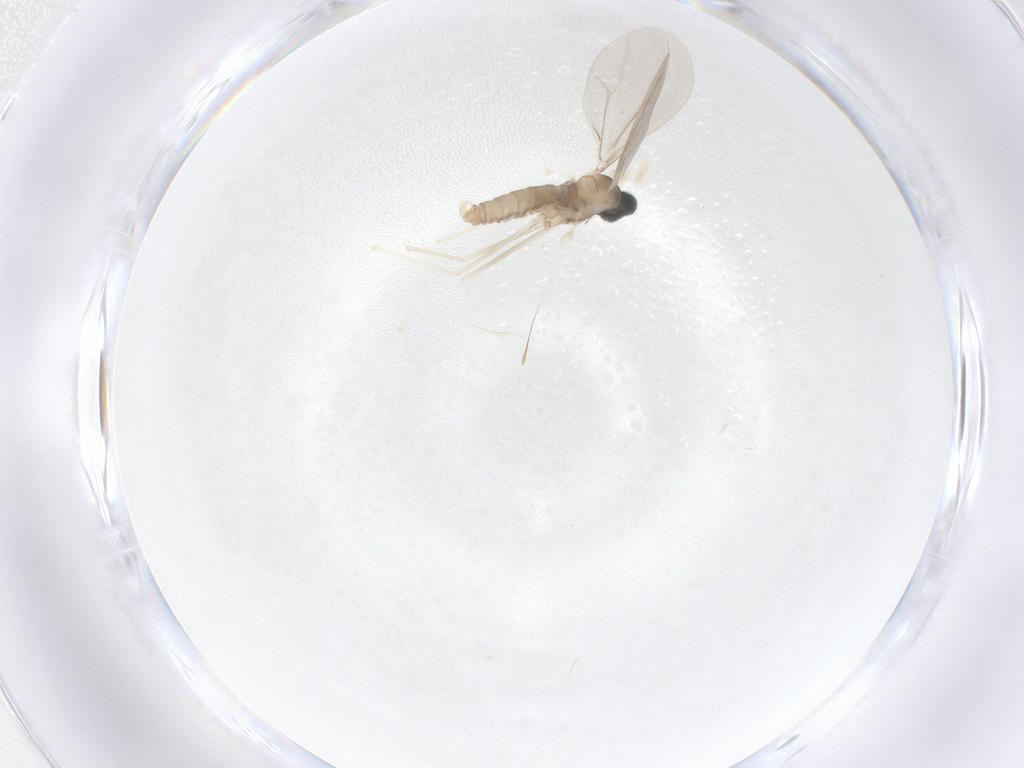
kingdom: Animalia
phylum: Arthropoda
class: Insecta
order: Diptera
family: Cecidomyiidae
